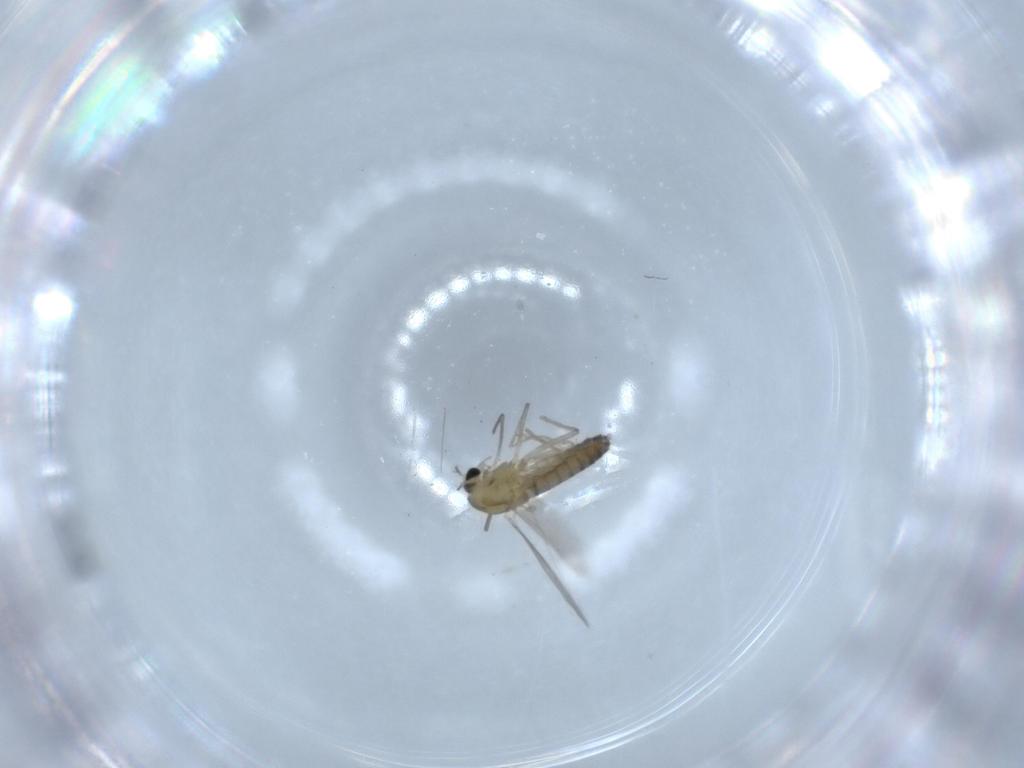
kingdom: Animalia
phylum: Arthropoda
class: Insecta
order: Diptera
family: Chironomidae
